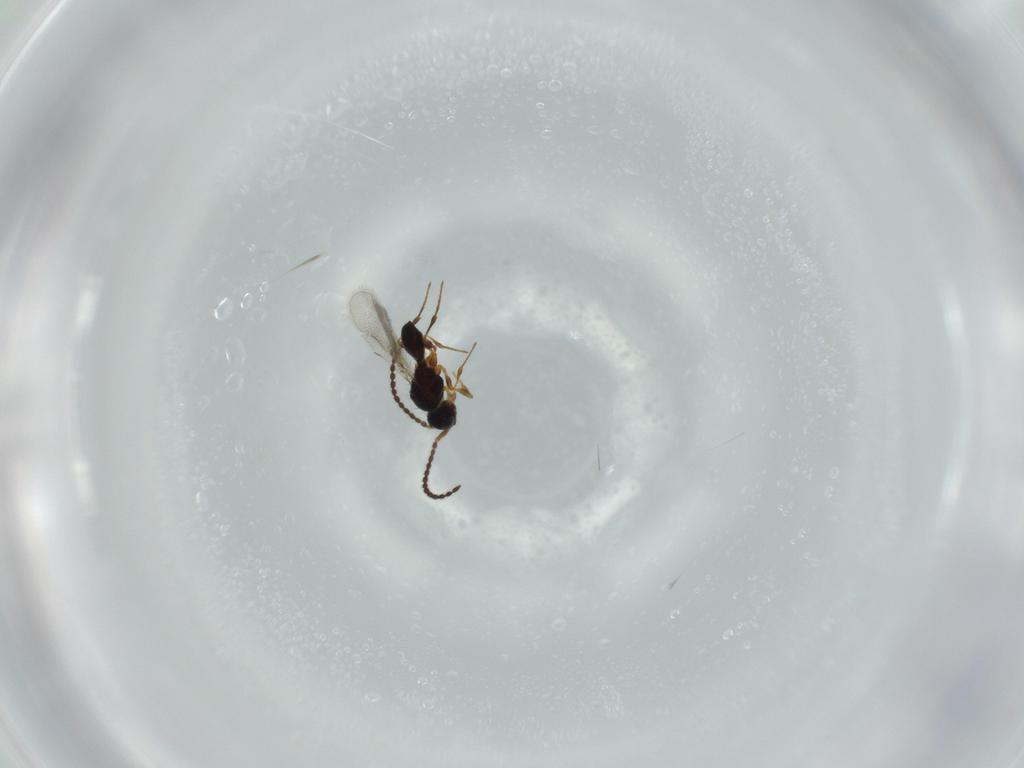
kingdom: Animalia
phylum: Arthropoda
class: Insecta
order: Hymenoptera
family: Diapriidae
